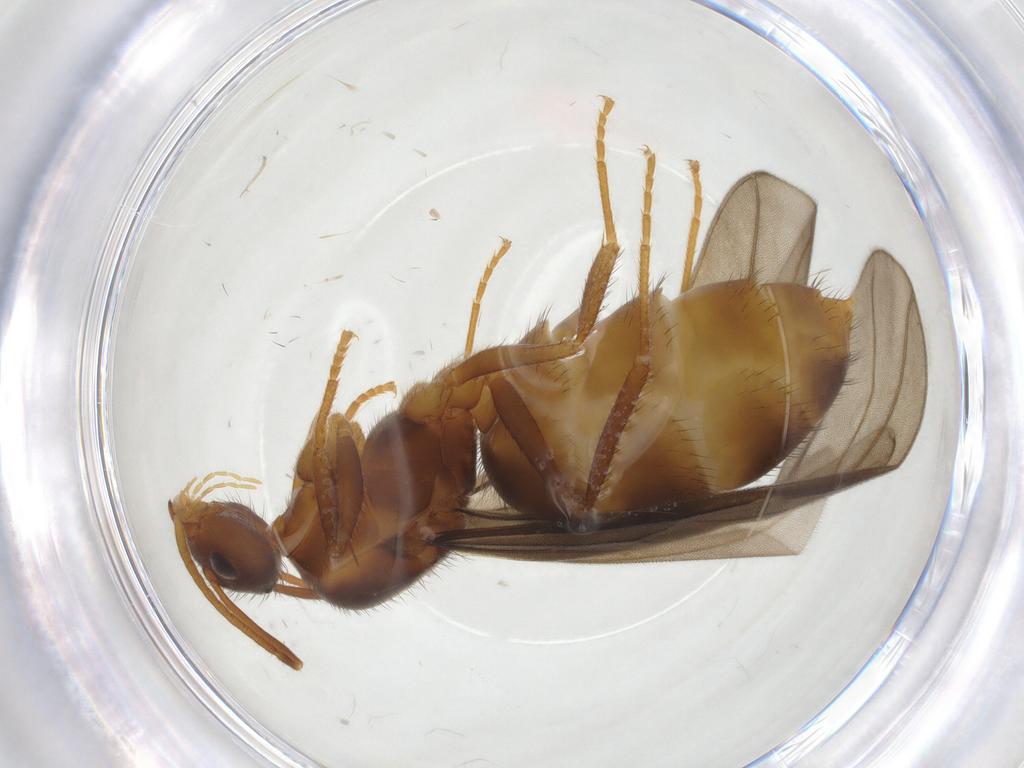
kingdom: Animalia
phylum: Arthropoda
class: Insecta
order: Hymenoptera
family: Formicidae
